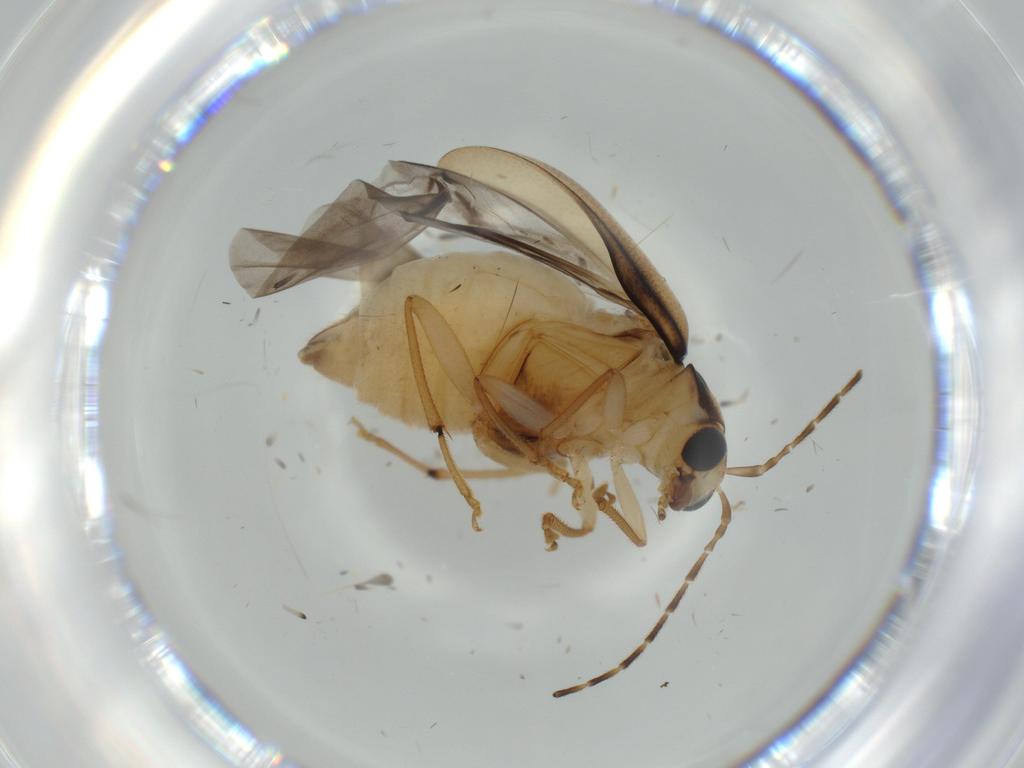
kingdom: Animalia
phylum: Arthropoda
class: Insecta
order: Coleoptera
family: Chrysomelidae
